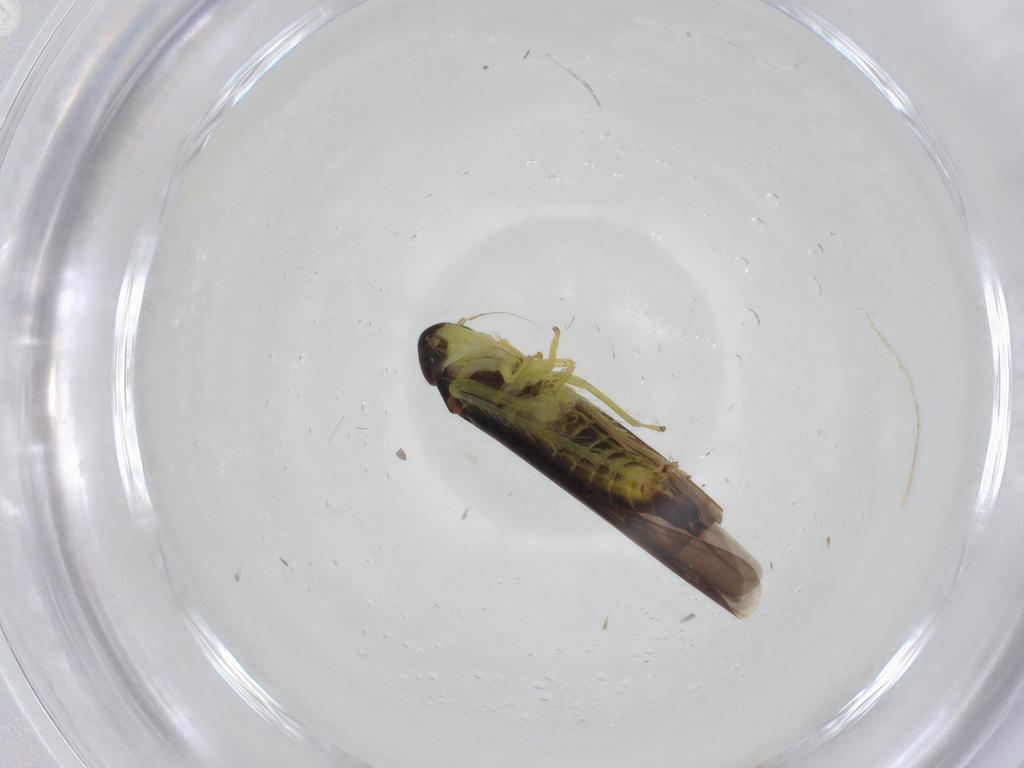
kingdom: Animalia
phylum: Arthropoda
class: Insecta
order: Hemiptera
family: Cicadellidae
